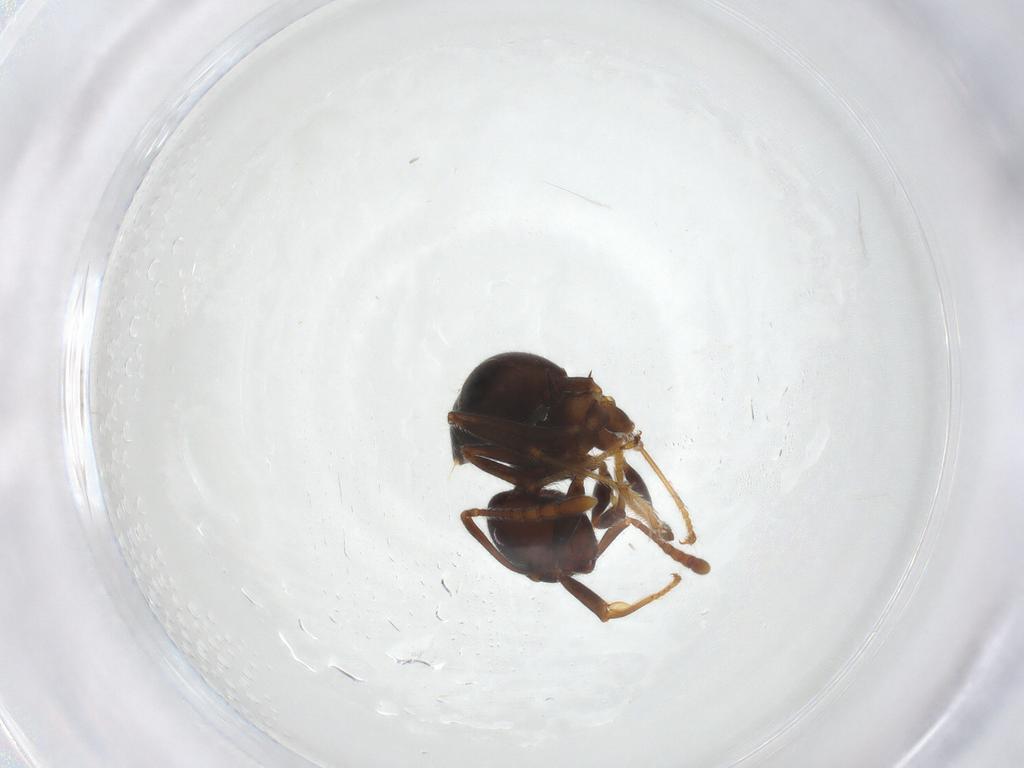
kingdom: Animalia
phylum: Arthropoda
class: Insecta
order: Hymenoptera
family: Formicidae
